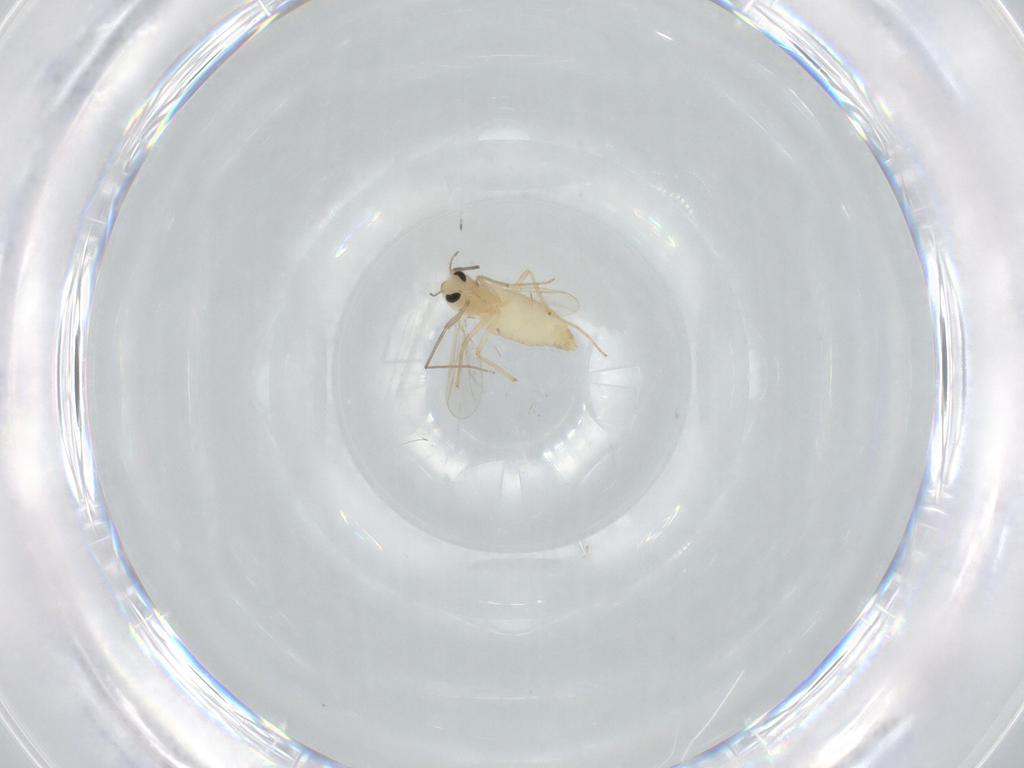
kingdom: Animalia
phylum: Arthropoda
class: Insecta
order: Diptera
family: Chironomidae
